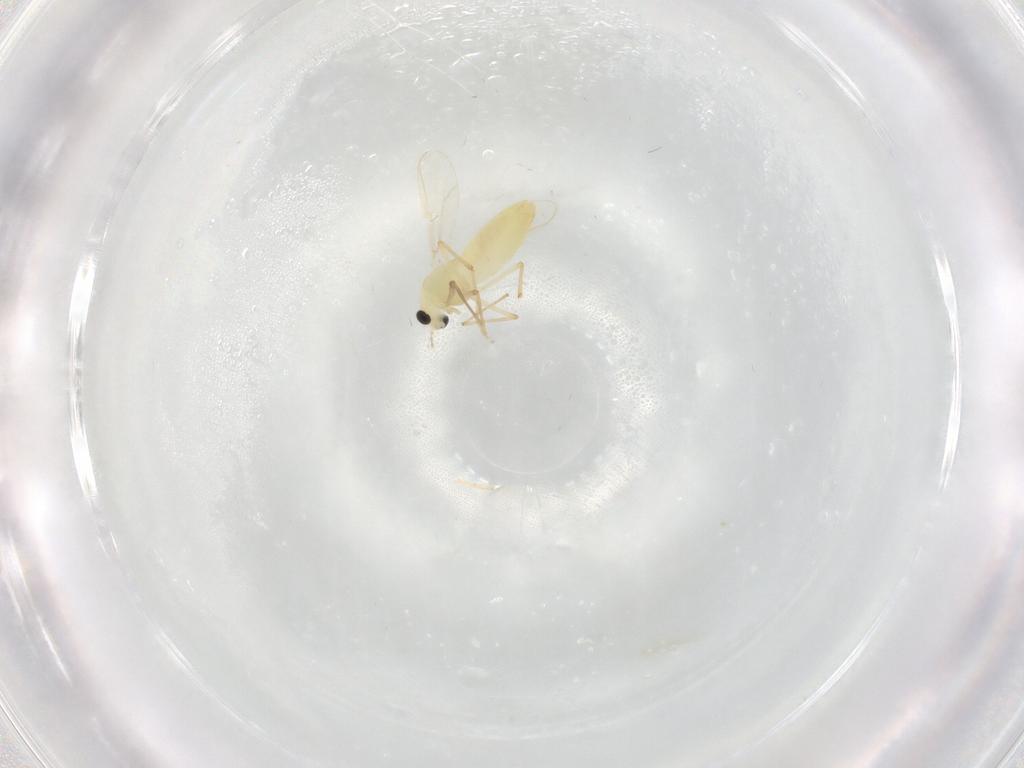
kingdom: Animalia
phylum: Arthropoda
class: Insecta
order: Diptera
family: Chironomidae
